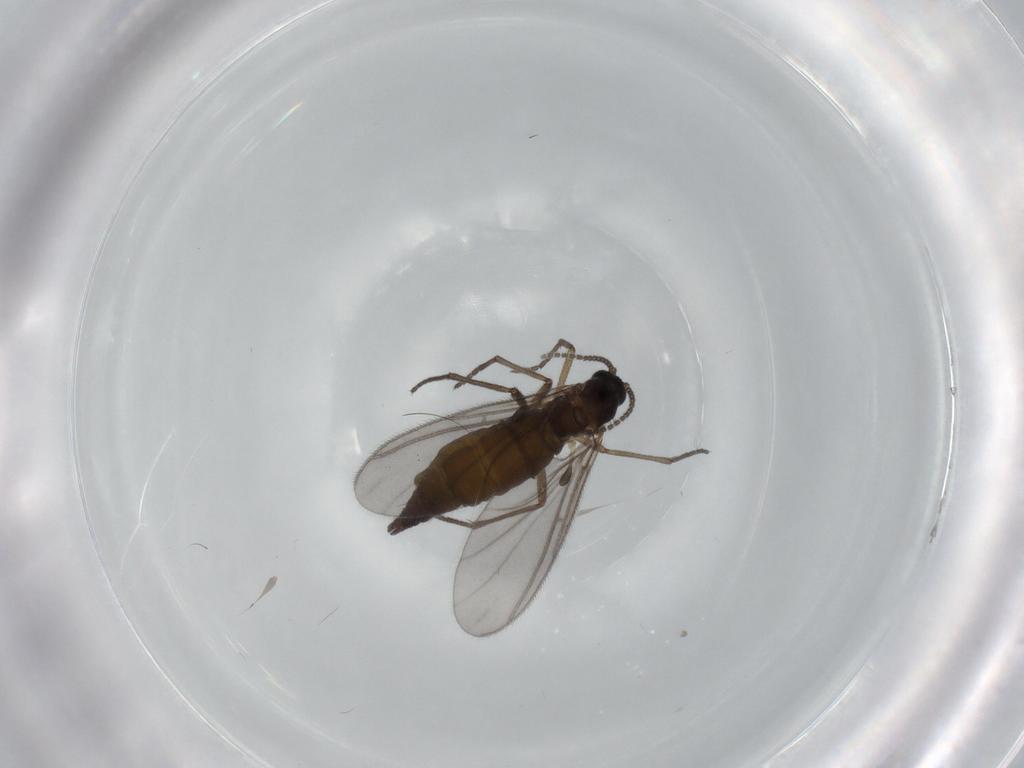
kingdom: Animalia
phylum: Arthropoda
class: Insecta
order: Diptera
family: Sciaridae
